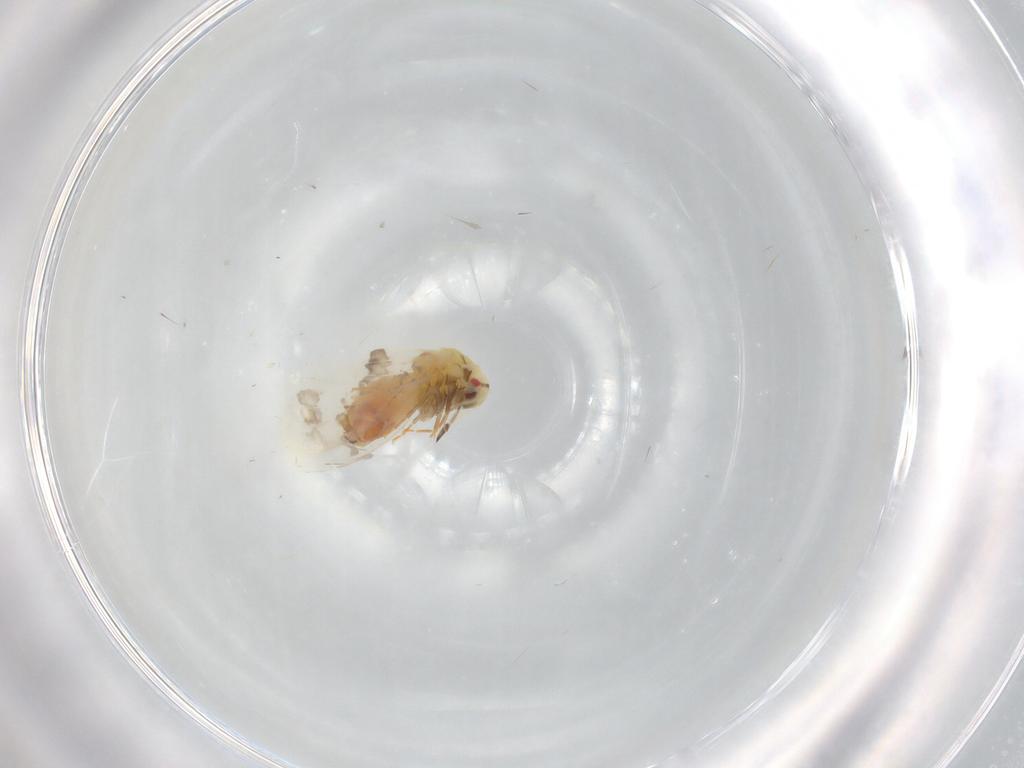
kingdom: Animalia
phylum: Arthropoda
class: Insecta
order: Hemiptera
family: Aleyrodidae
